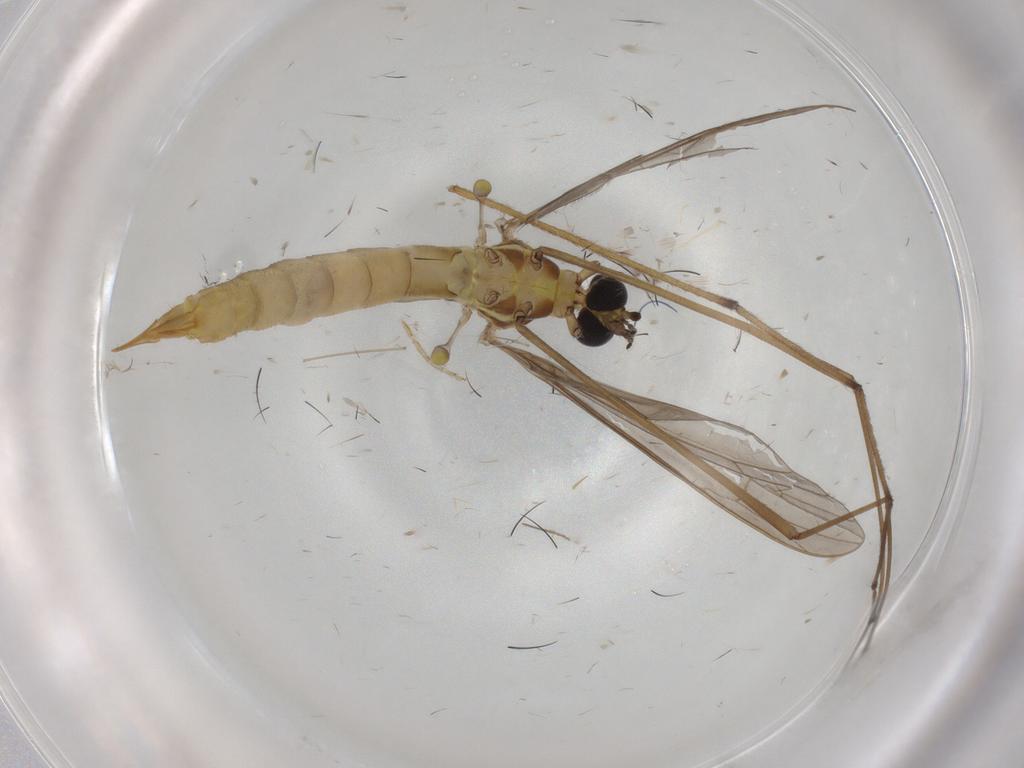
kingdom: Animalia
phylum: Arthropoda
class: Insecta
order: Diptera
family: Limoniidae
